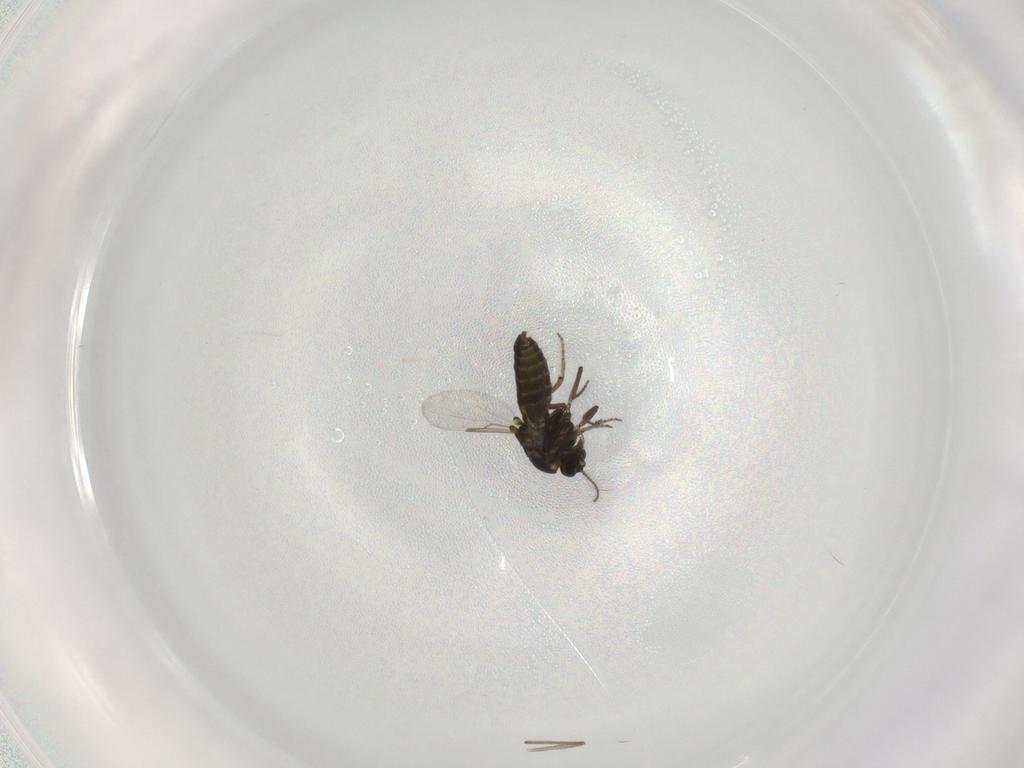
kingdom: Animalia
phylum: Arthropoda
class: Insecta
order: Diptera
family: Ceratopogonidae
